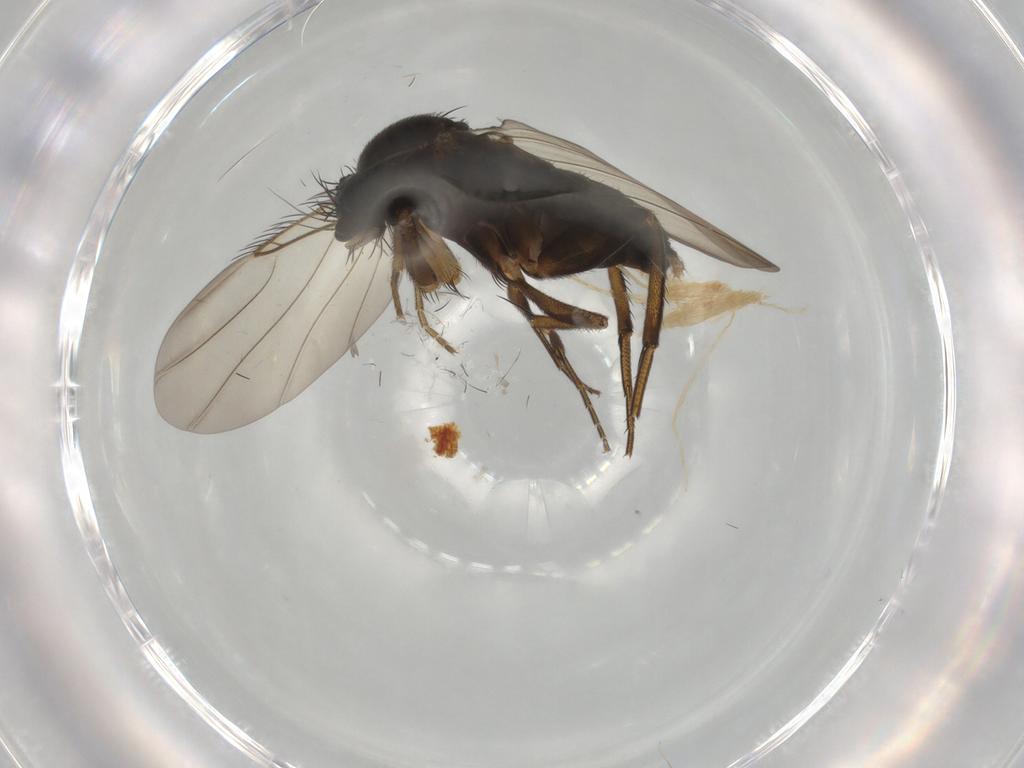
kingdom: Animalia
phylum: Arthropoda
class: Insecta
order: Diptera
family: Phoridae
